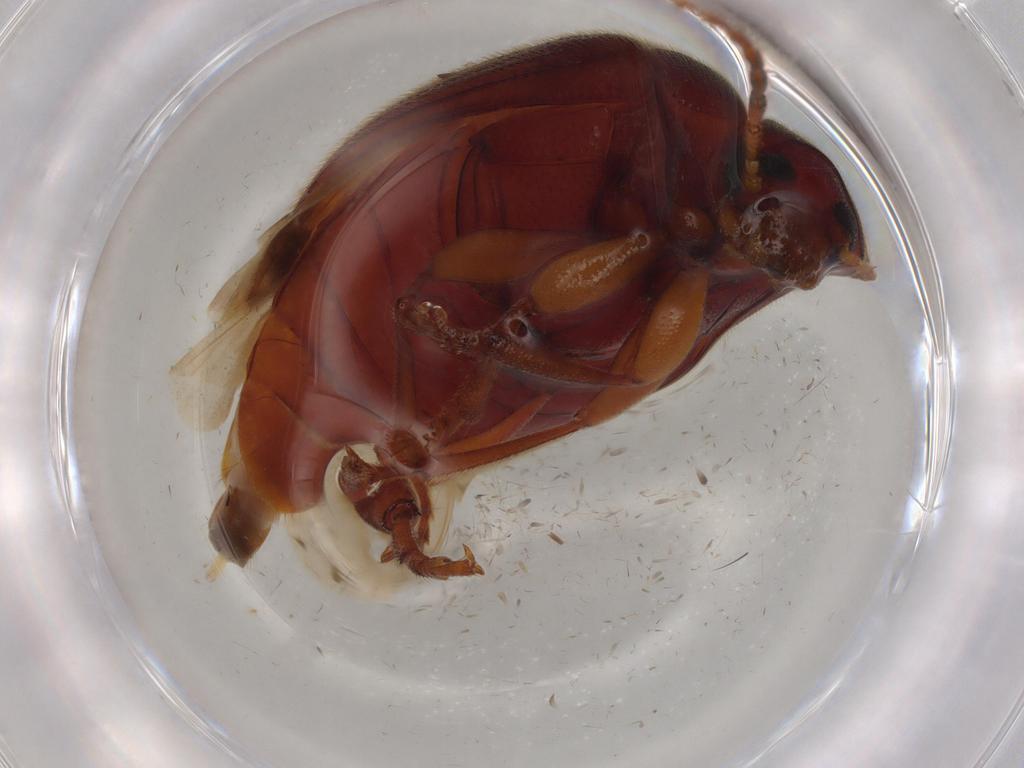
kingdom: Animalia
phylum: Arthropoda
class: Insecta
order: Coleoptera
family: Tenebrionidae
